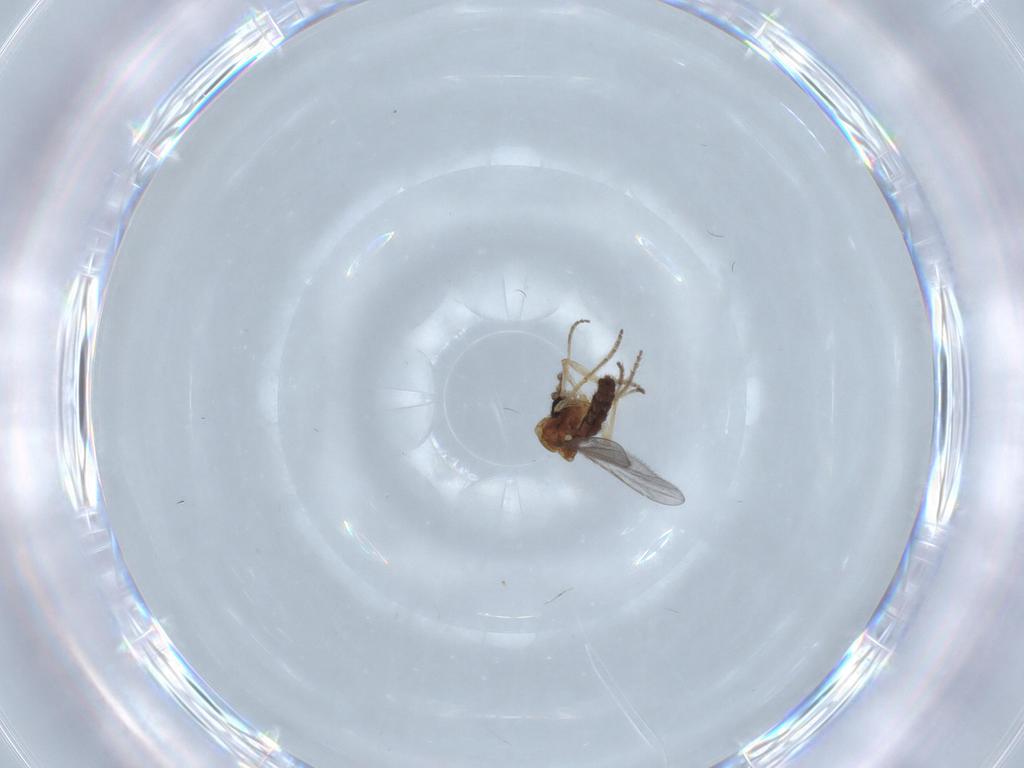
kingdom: Animalia
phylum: Arthropoda
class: Insecta
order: Diptera
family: Ceratopogonidae
